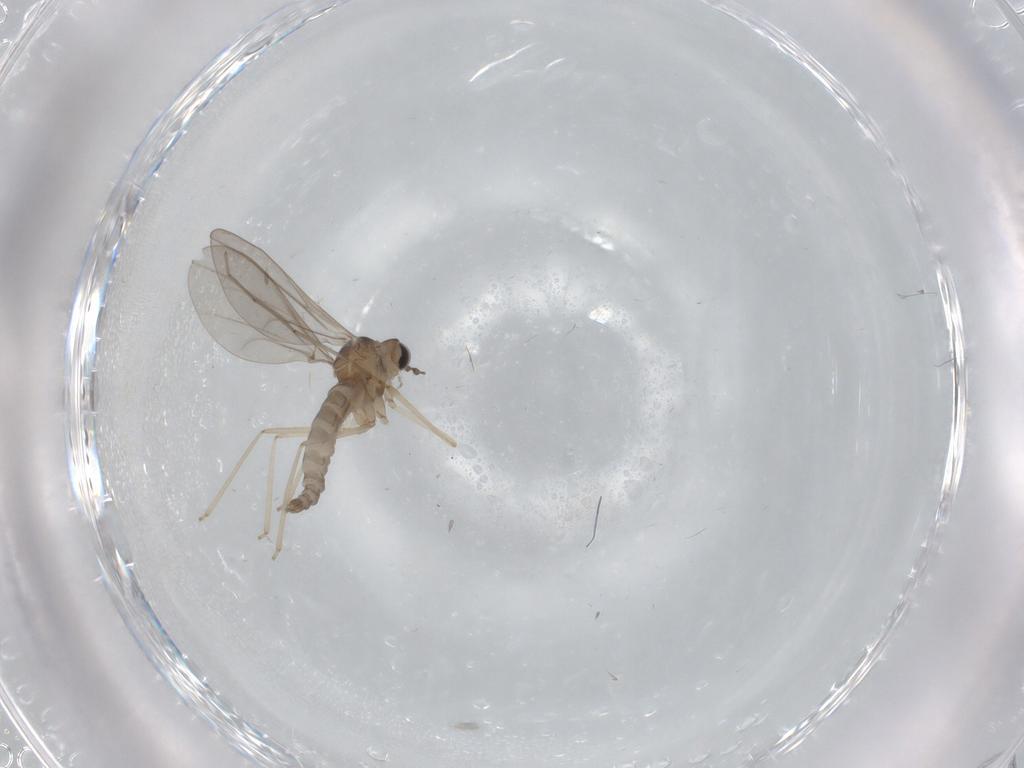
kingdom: Animalia
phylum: Arthropoda
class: Insecta
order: Diptera
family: Cecidomyiidae
